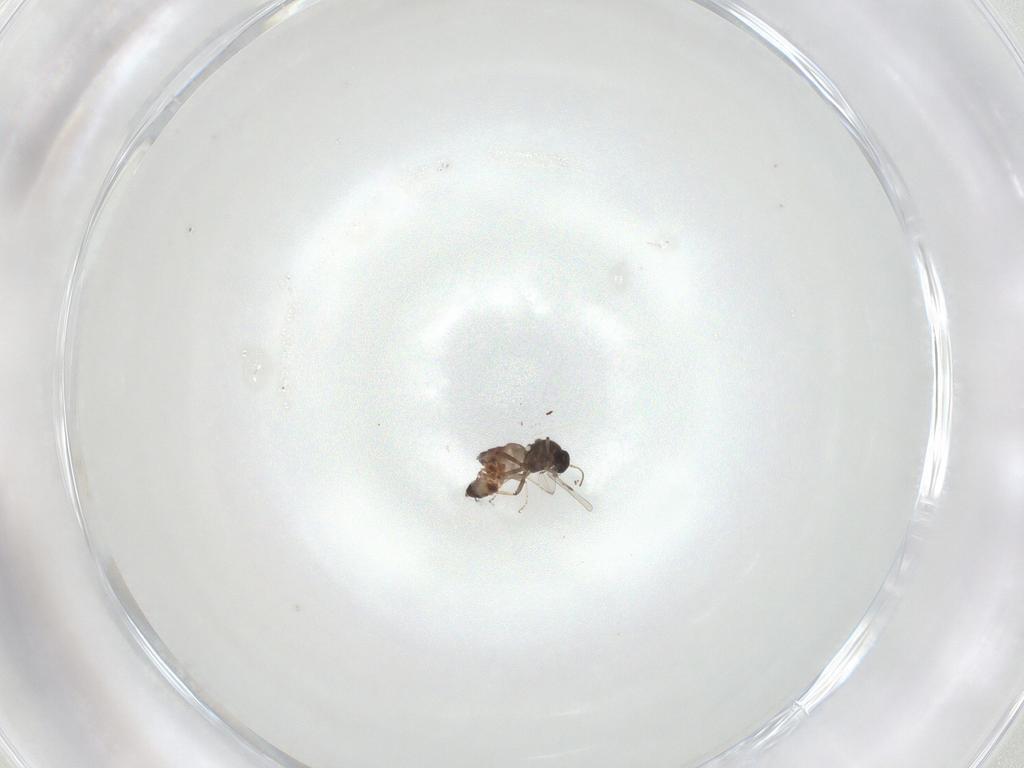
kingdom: Animalia
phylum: Arthropoda
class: Insecta
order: Diptera
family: Ceratopogonidae
